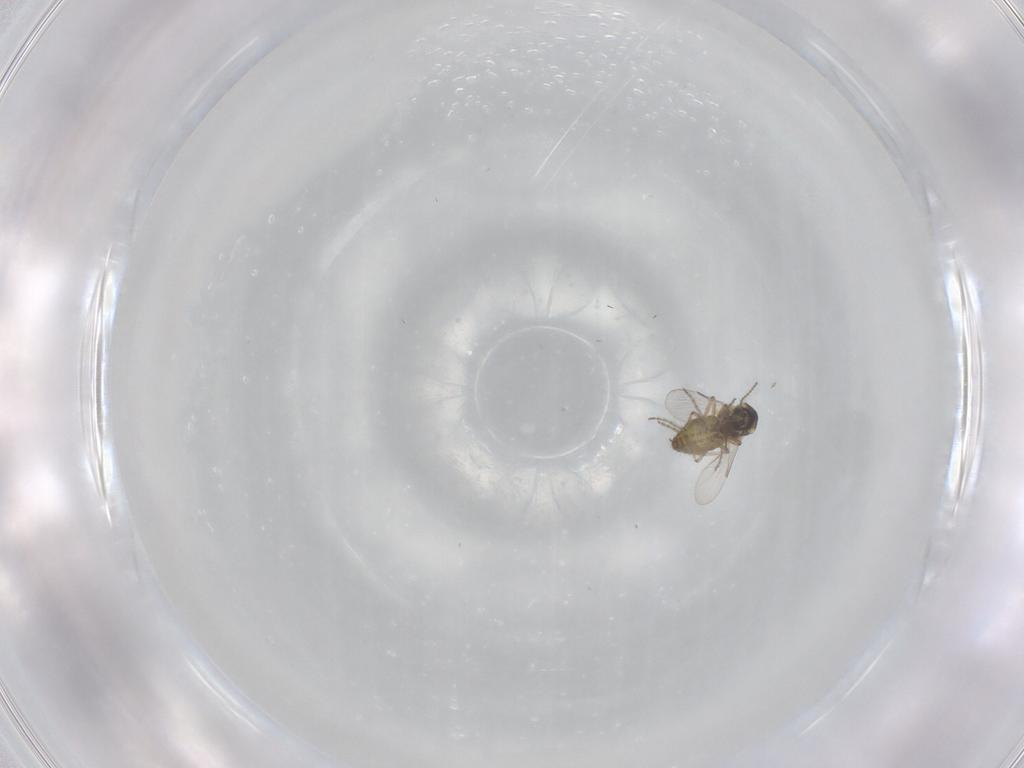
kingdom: Animalia
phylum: Arthropoda
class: Insecta
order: Diptera
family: Ceratopogonidae
